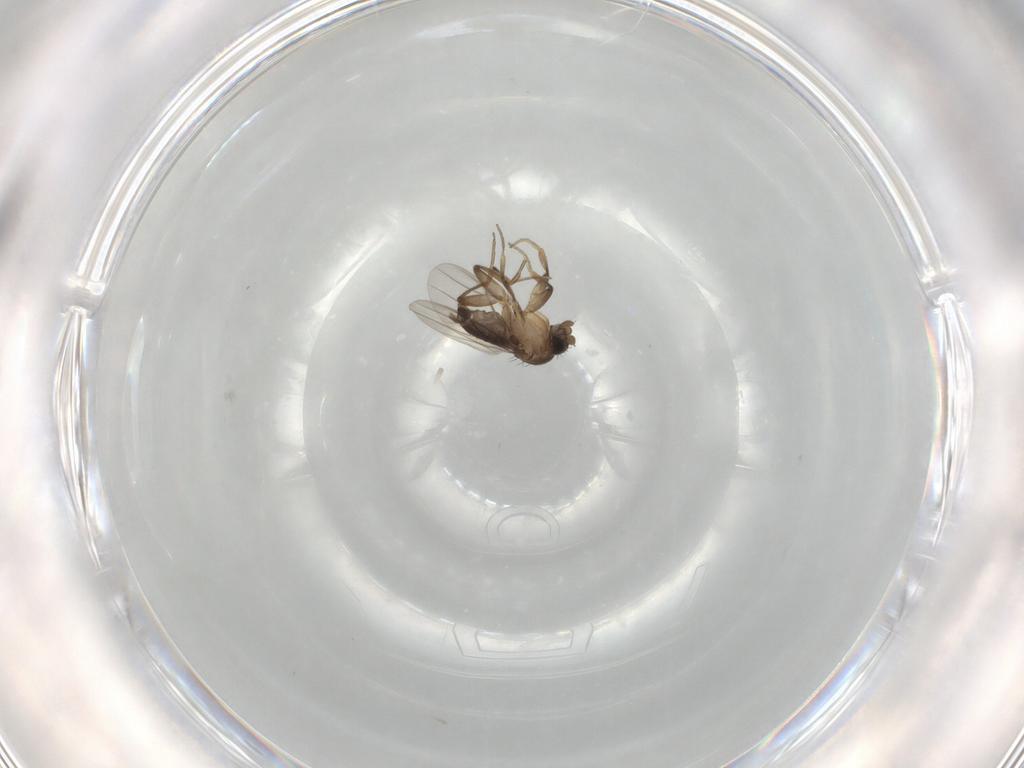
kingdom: Animalia
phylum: Arthropoda
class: Insecta
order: Diptera
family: Phoridae
